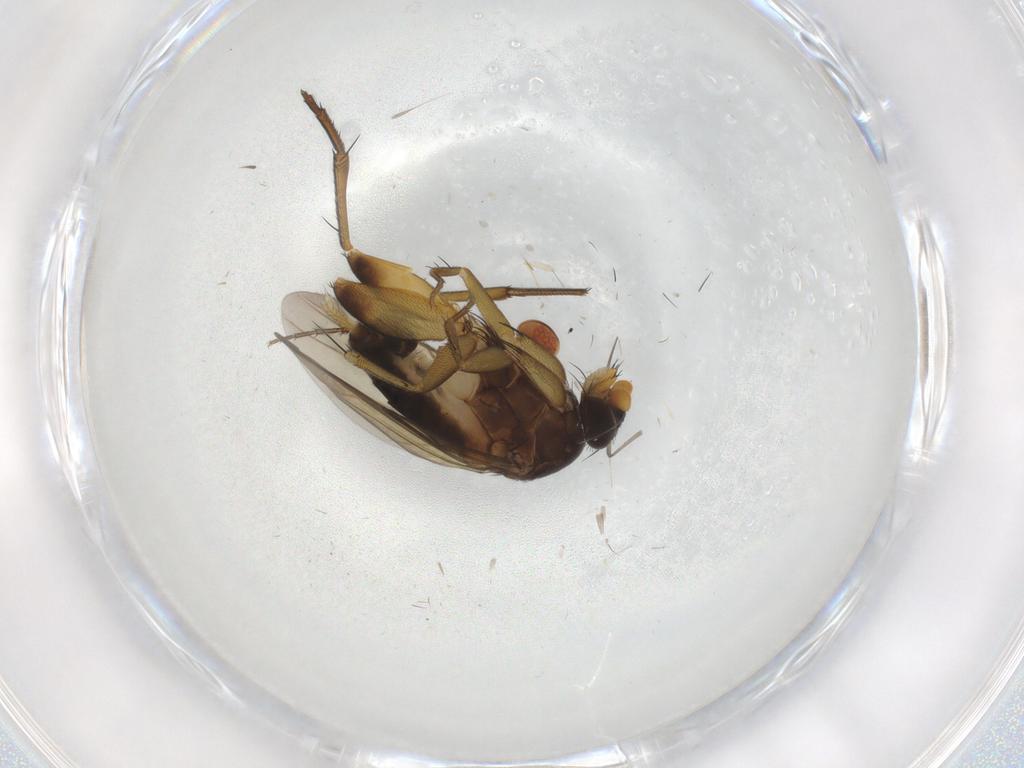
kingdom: Animalia
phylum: Arthropoda
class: Insecta
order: Diptera
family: Phoridae
